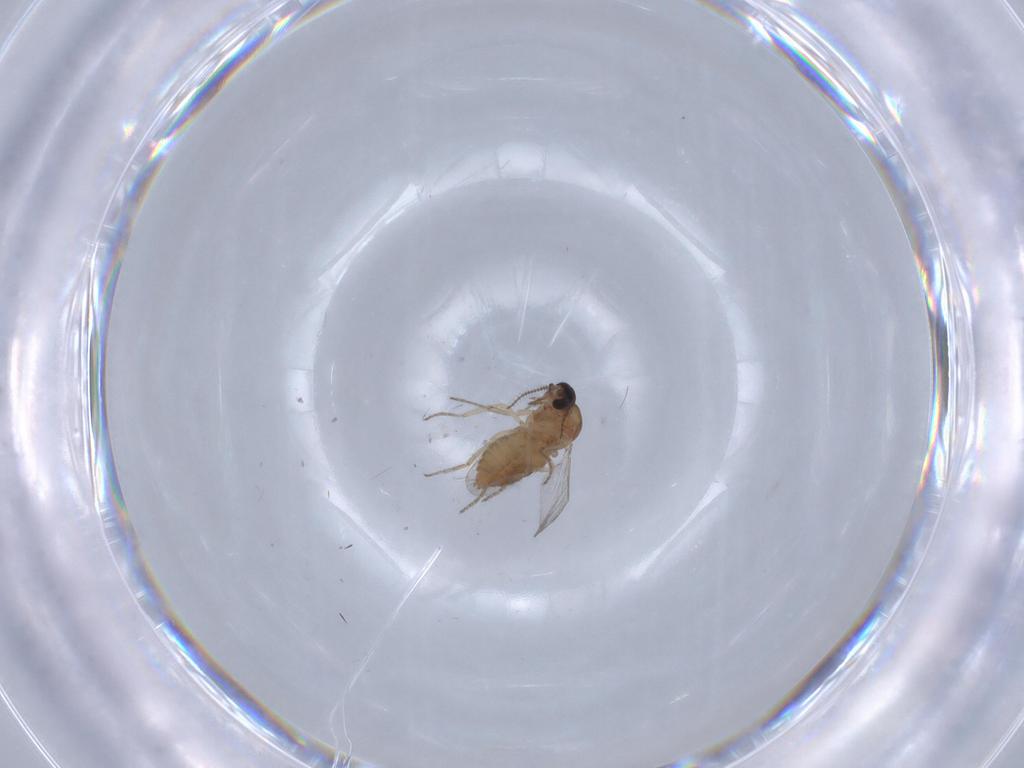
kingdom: Animalia
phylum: Arthropoda
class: Insecta
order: Diptera
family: Ceratopogonidae
